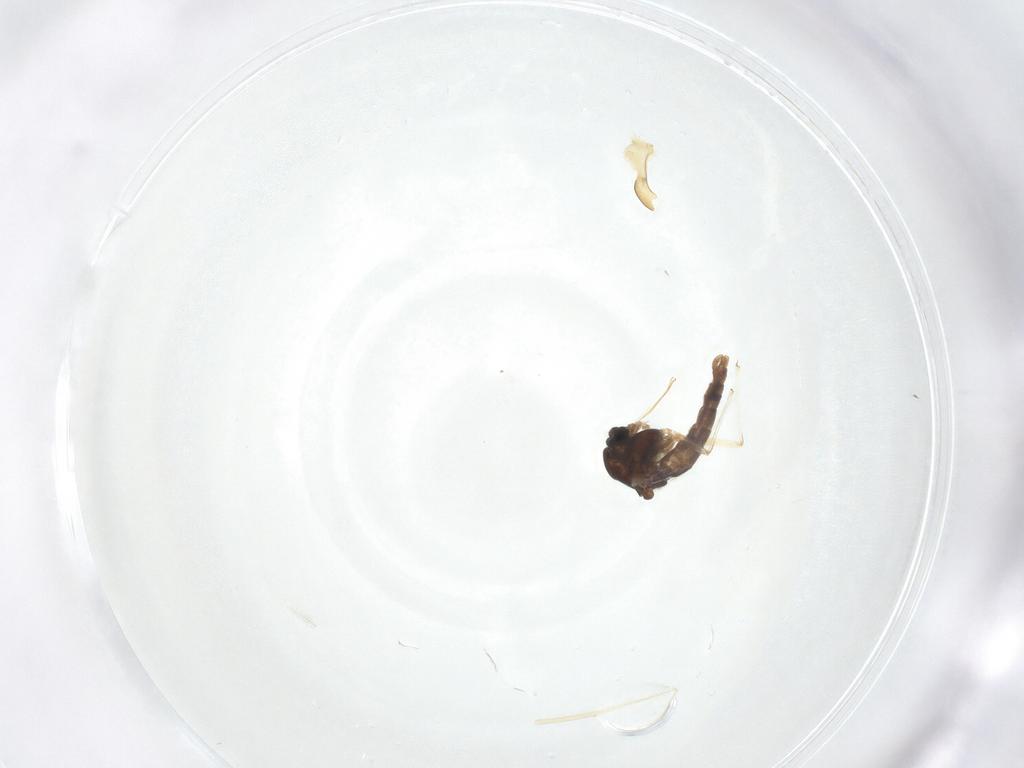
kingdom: Animalia
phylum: Arthropoda
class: Insecta
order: Diptera
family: Chironomidae
